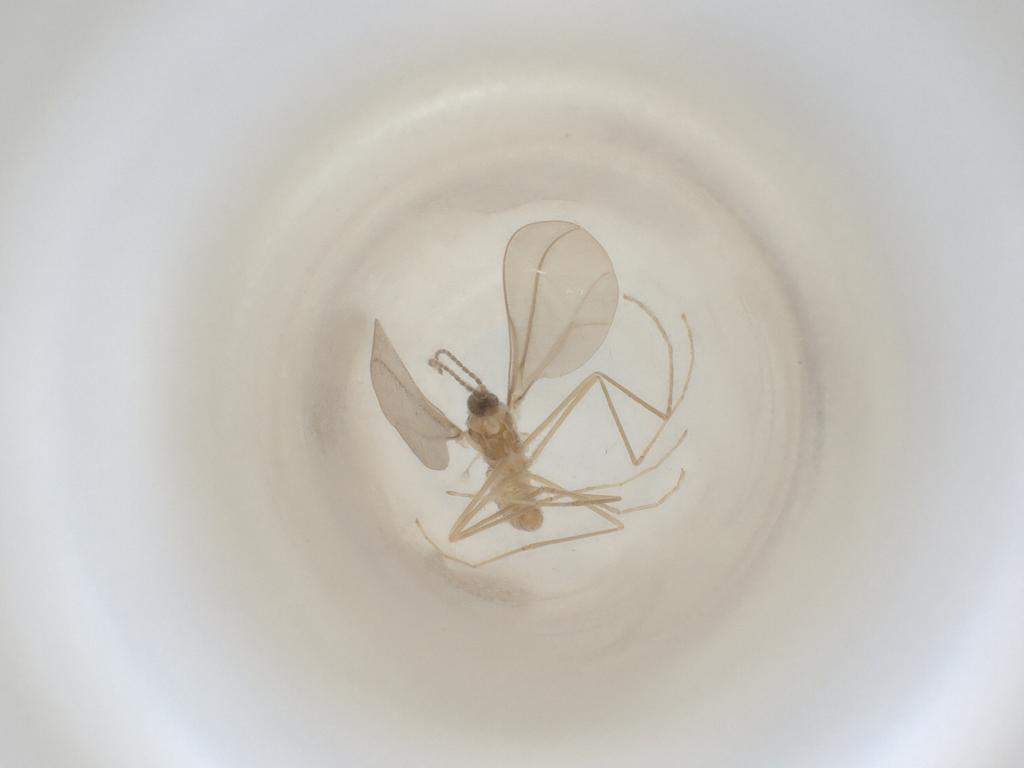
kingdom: Animalia
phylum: Arthropoda
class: Insecta
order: Diptera
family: Cecidomyiidae
